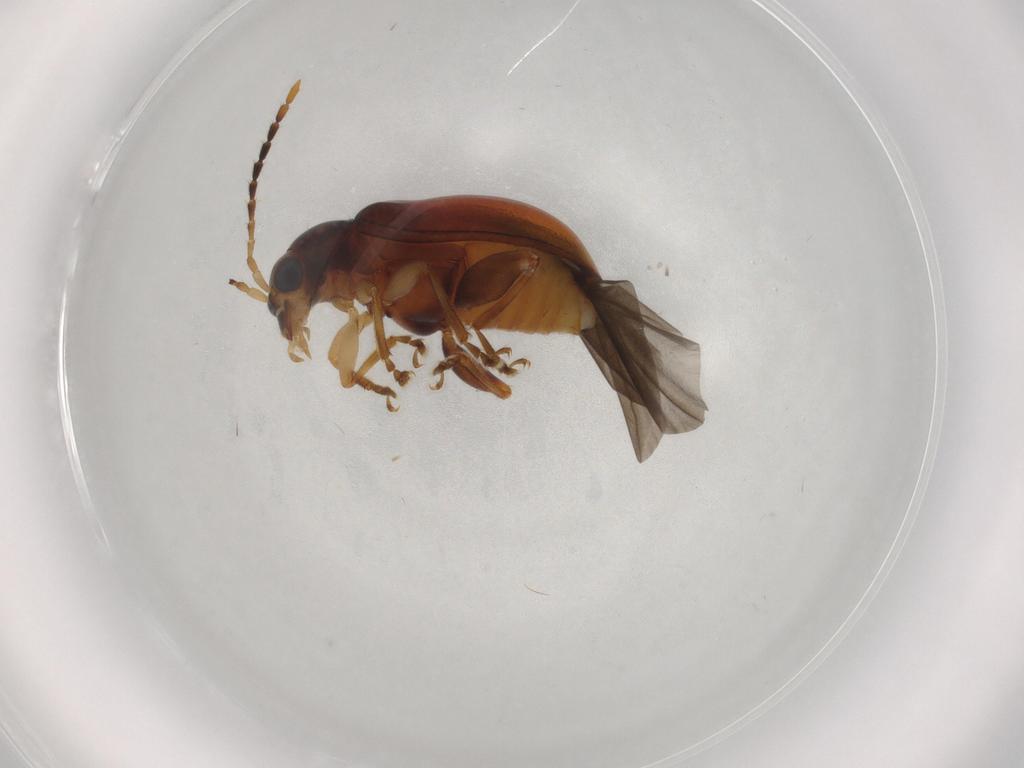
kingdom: Animalia
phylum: Arthropoda
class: Insecta
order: Coleoptera
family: Chrysomelidae
